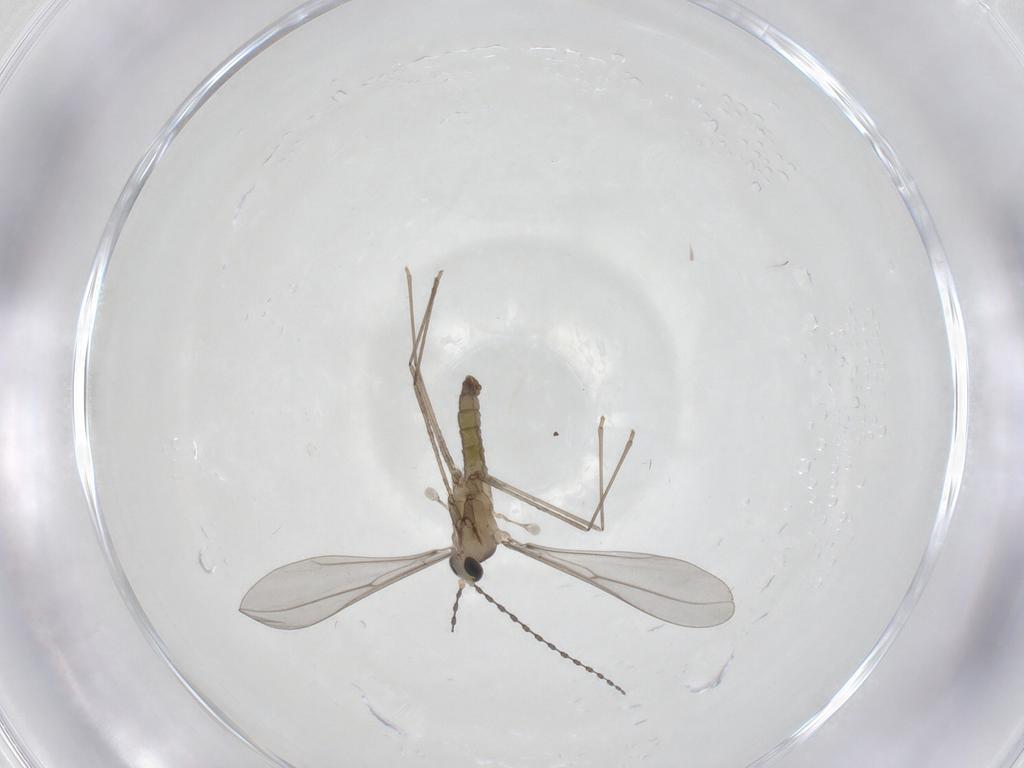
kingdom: Animalia
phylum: Arthropoda
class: Insecta
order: Diptera
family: Cecidomyiidae
